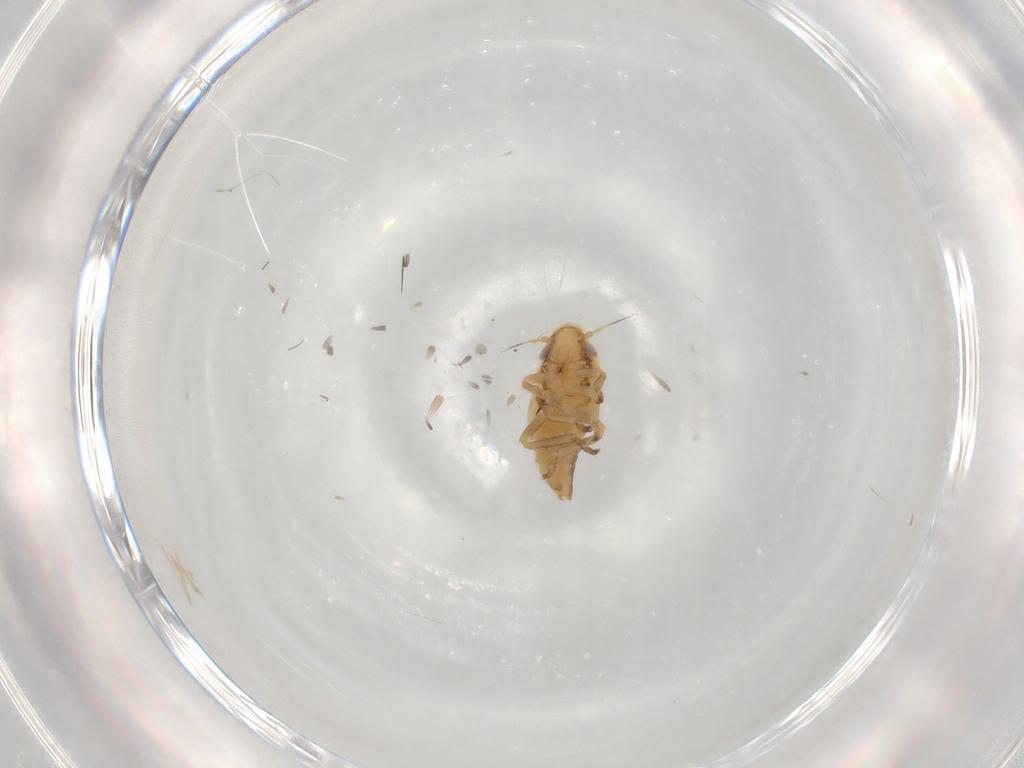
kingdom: Animalia
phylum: Arthropoda
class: Insecta
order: Hemiptera
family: Cicadellidae
